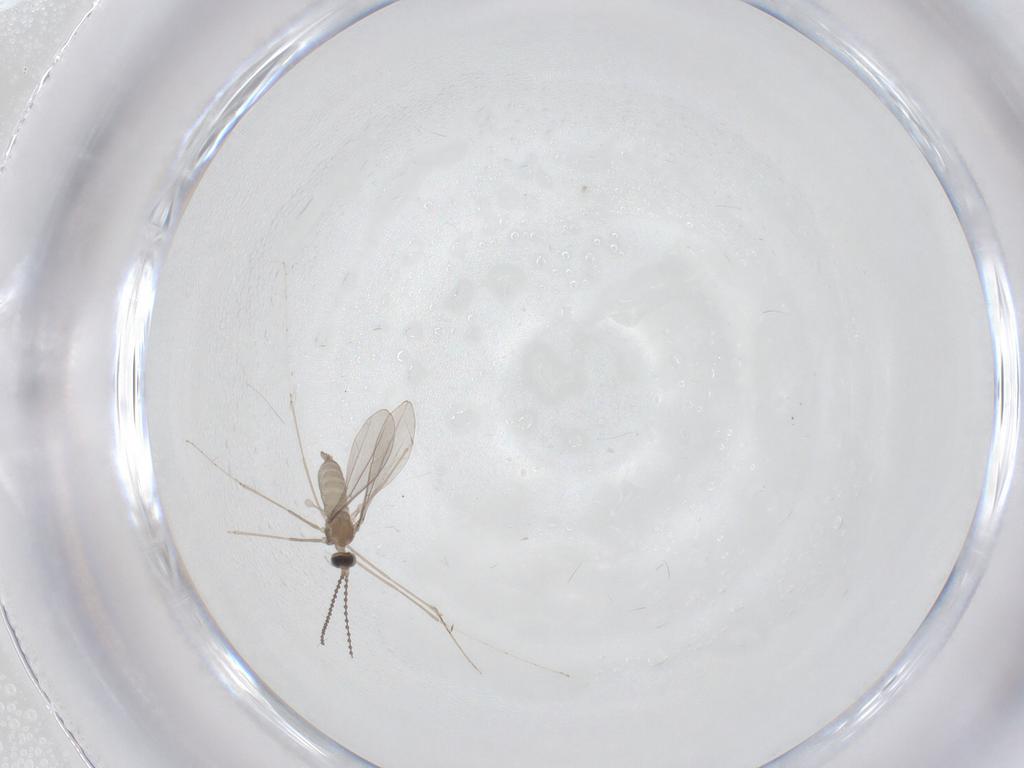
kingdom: Animalia
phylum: Arthropoda
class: Insecta
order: Diptera
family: Cecidomyiidae
